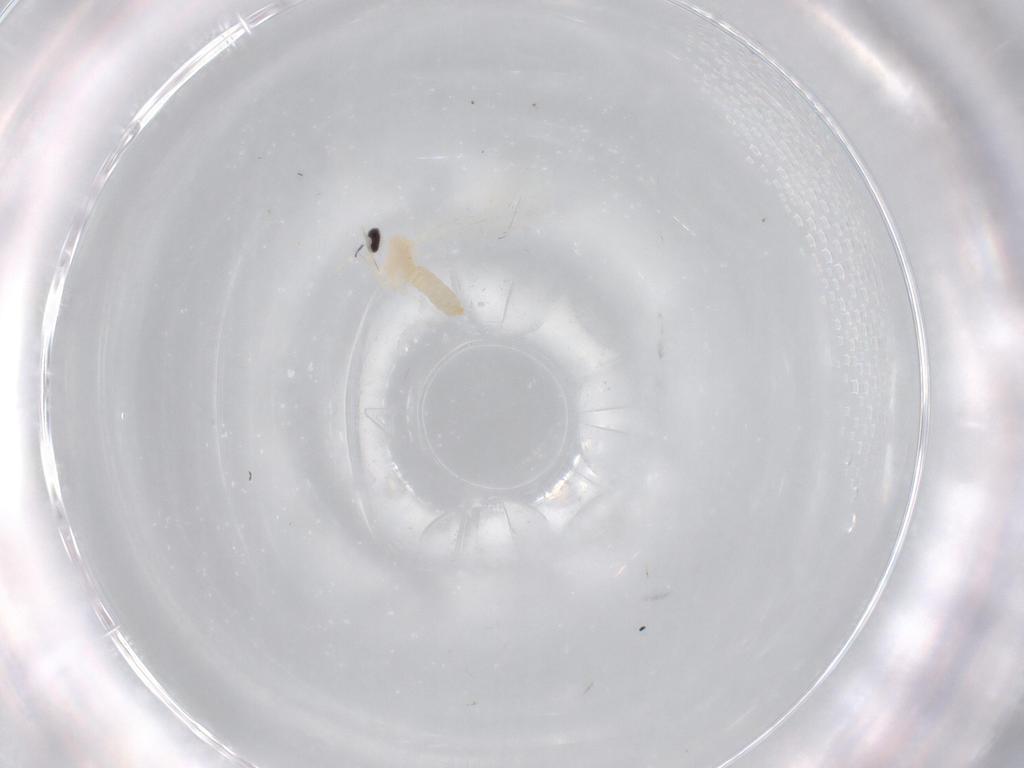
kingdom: Animalia
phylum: Arthropoda
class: Insecta
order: Diptera
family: Cecidomyiidae
